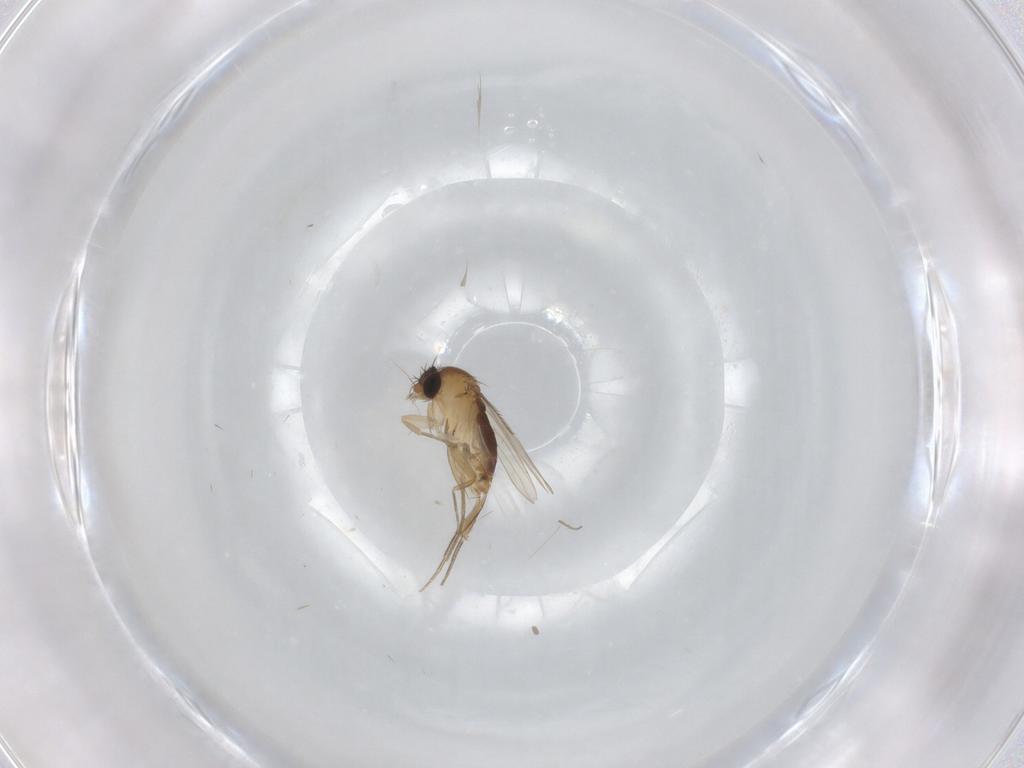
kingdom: Animalia
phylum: Arthropoda
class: Insecta
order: Diptera
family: Phoridae
